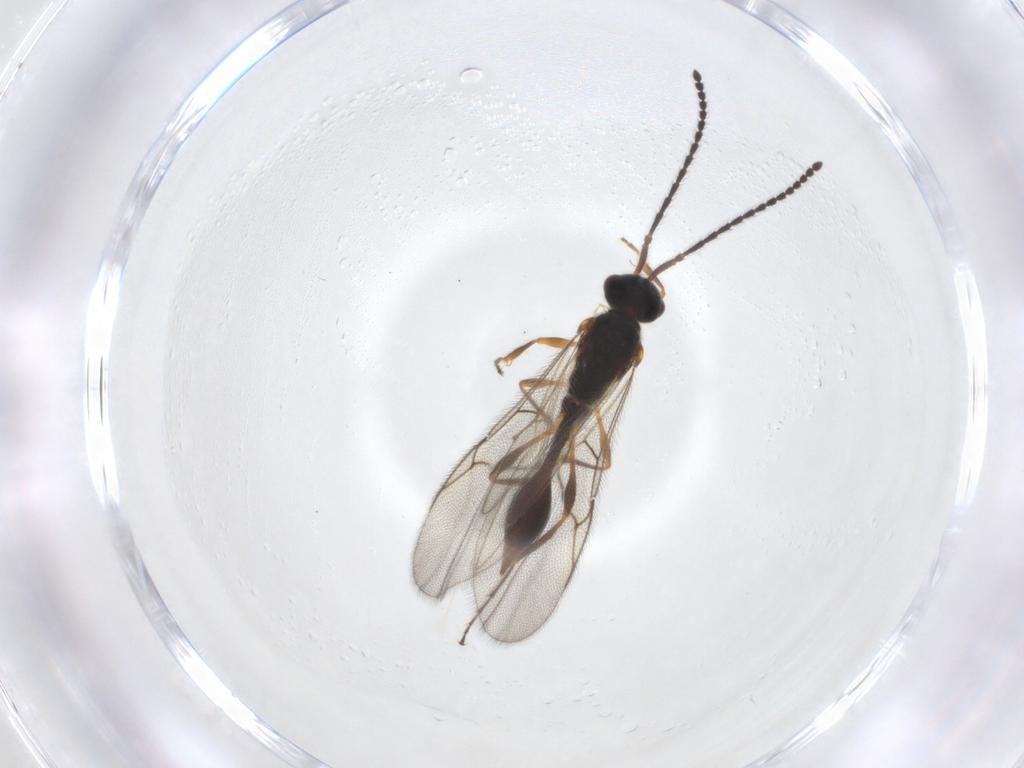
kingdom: Animalia
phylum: Arthropoda
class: Insecta
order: Hymenoptera
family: Diapriidae
